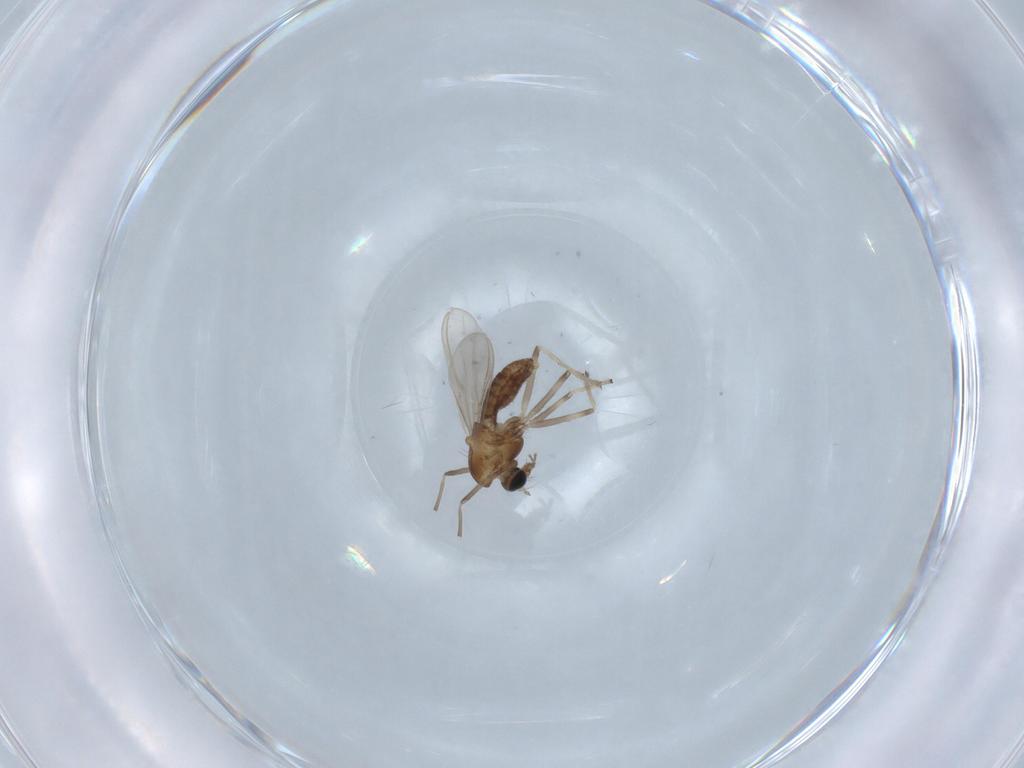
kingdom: Animalia
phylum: Arthropoda
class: Insecta
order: Diptera
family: Chironomidae
